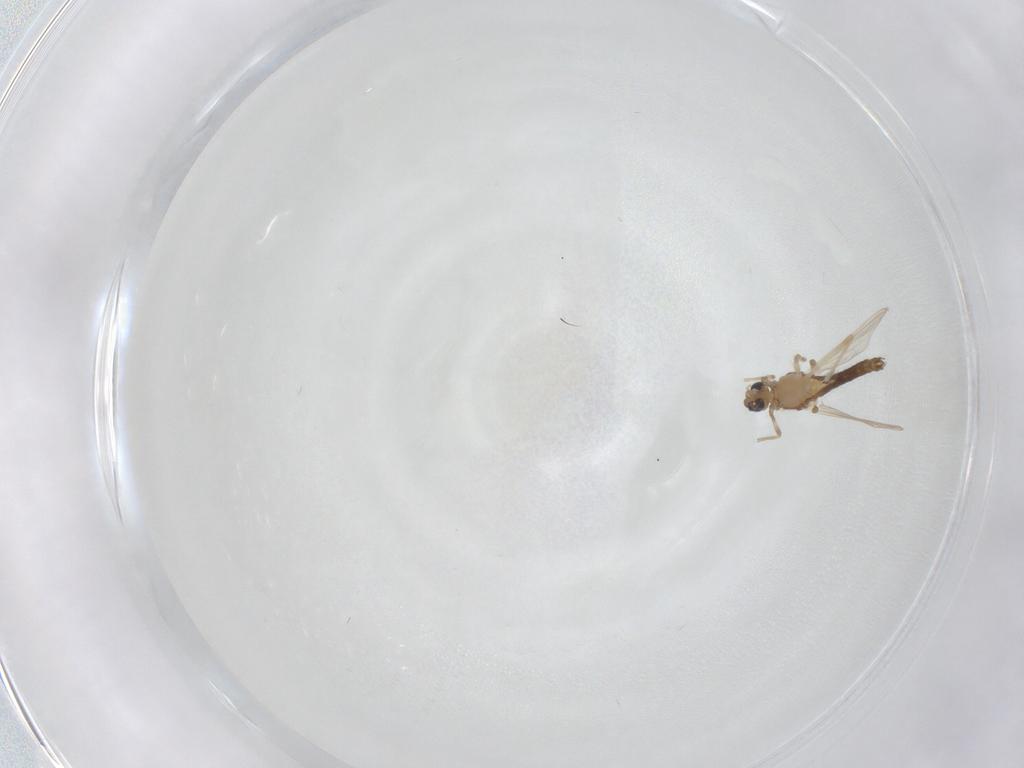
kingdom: Animalia
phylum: Arthropoda
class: Insecta
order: Diptera
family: Chironomidae
